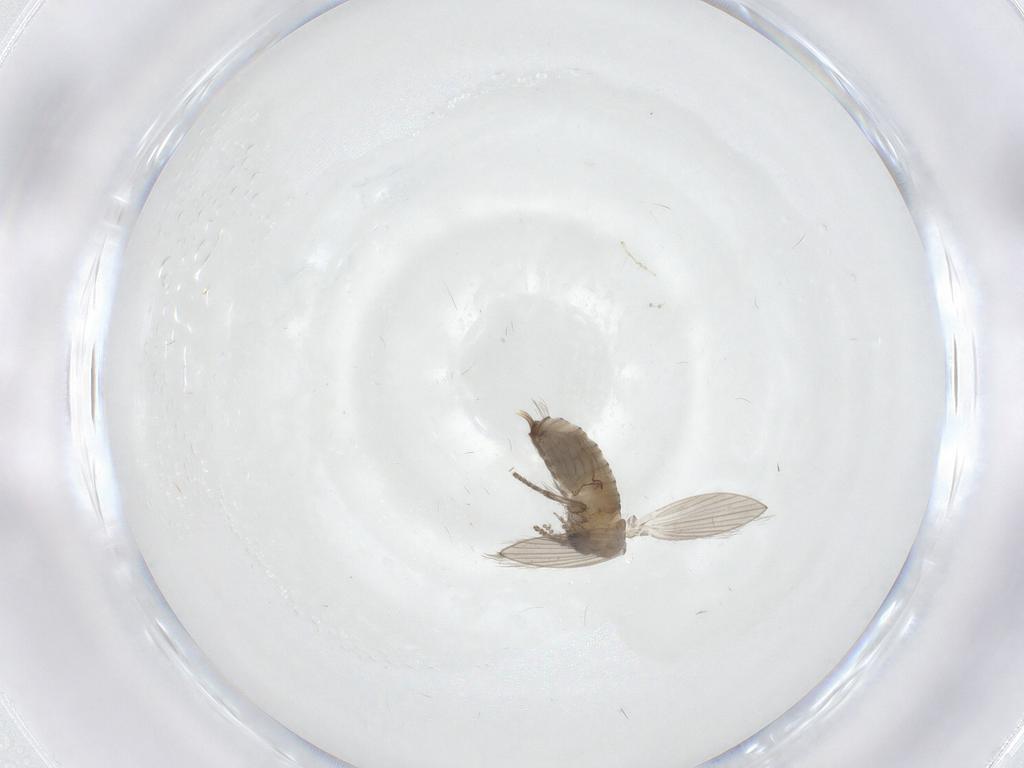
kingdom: Animalia
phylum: Arthropoda
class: Insecta
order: Diptera
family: Psychodidae
